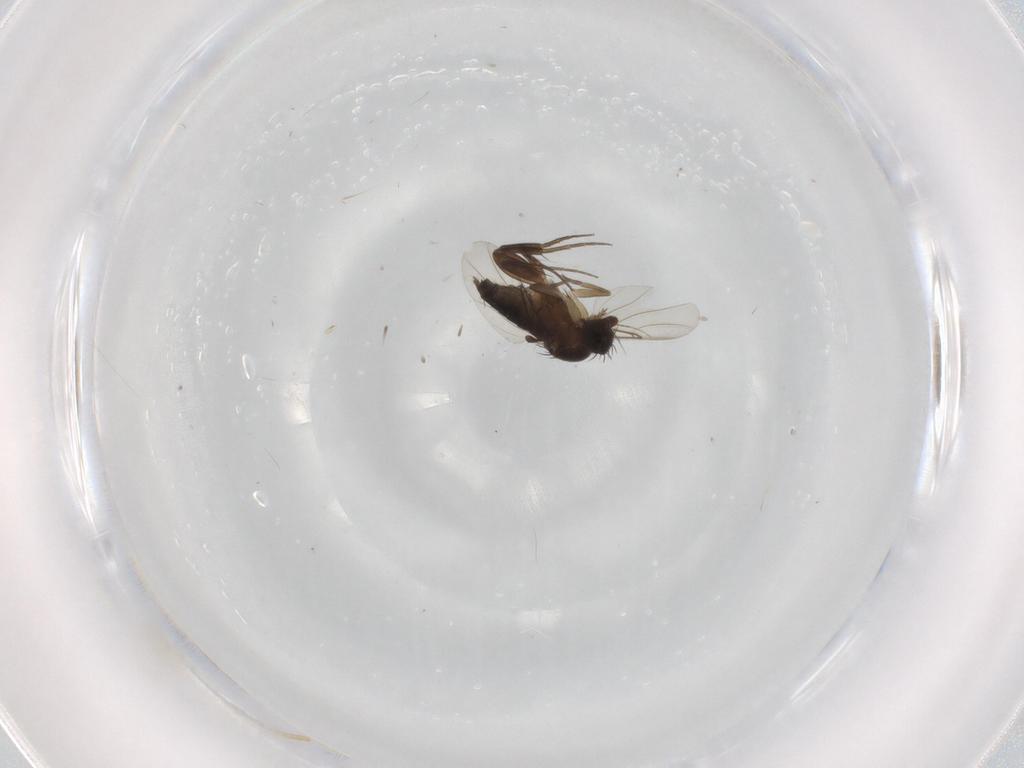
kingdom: Animalia
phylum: Arthropoda
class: Insecta
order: Diptera
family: Phoridae
